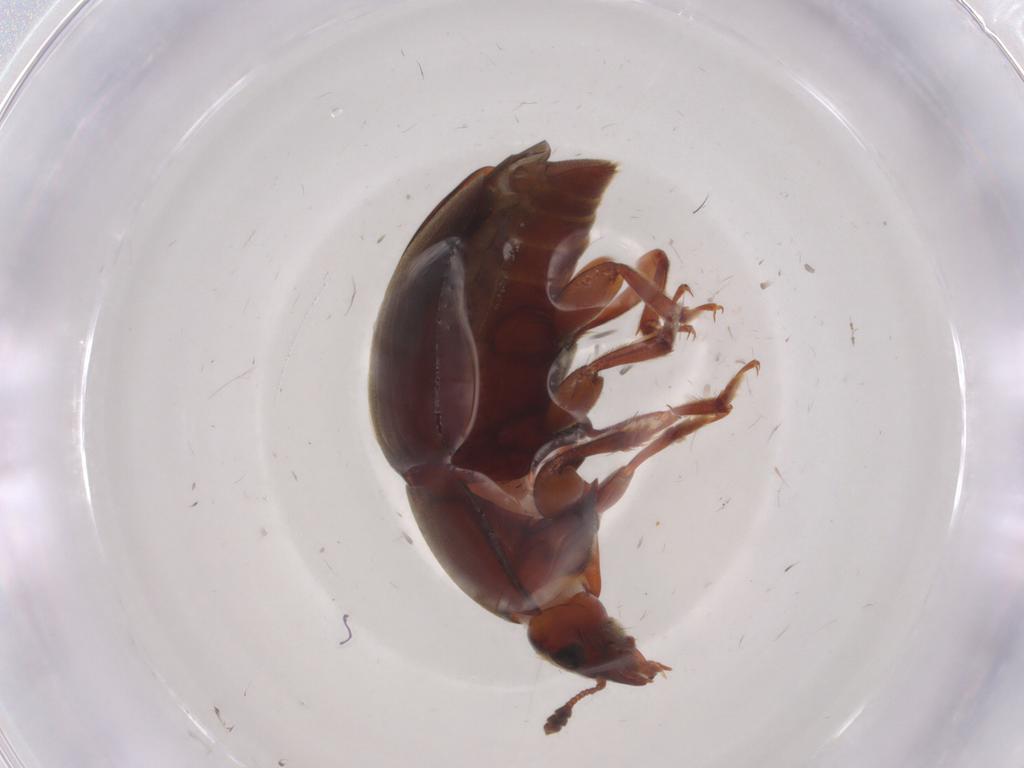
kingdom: Animalia
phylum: Arthropoda
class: Insecta
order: Coleoptera
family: Nitidulidae
